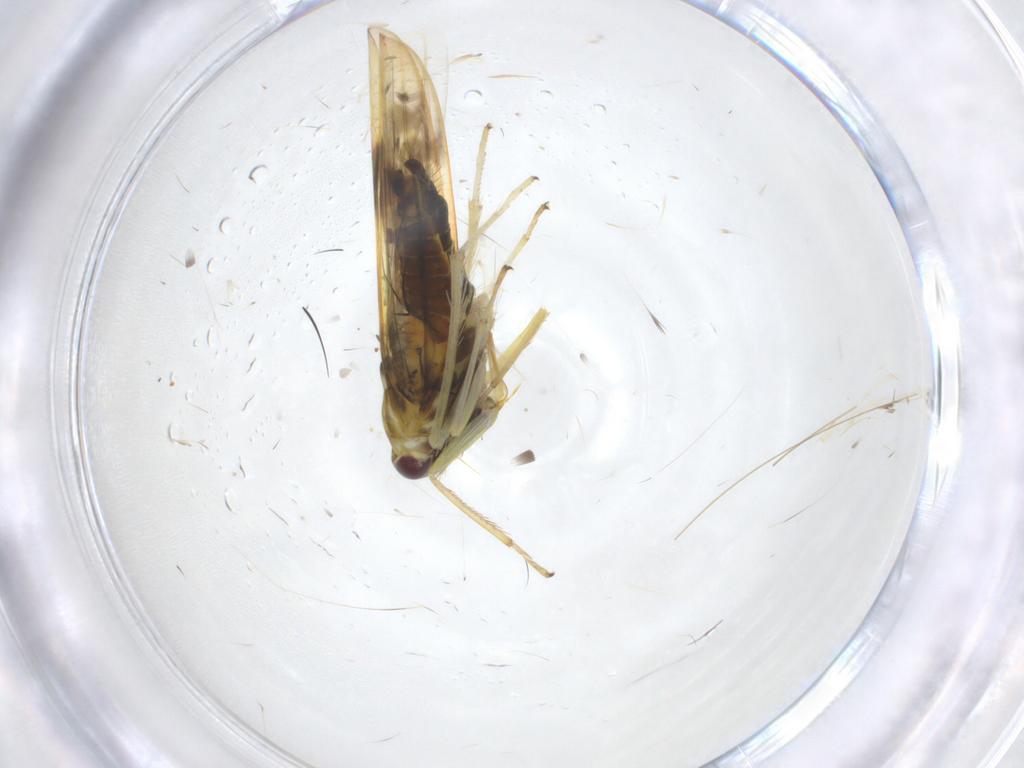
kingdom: Animalia
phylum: Arthropoda
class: Insecta
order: Hemiptera
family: Cicadellidae
